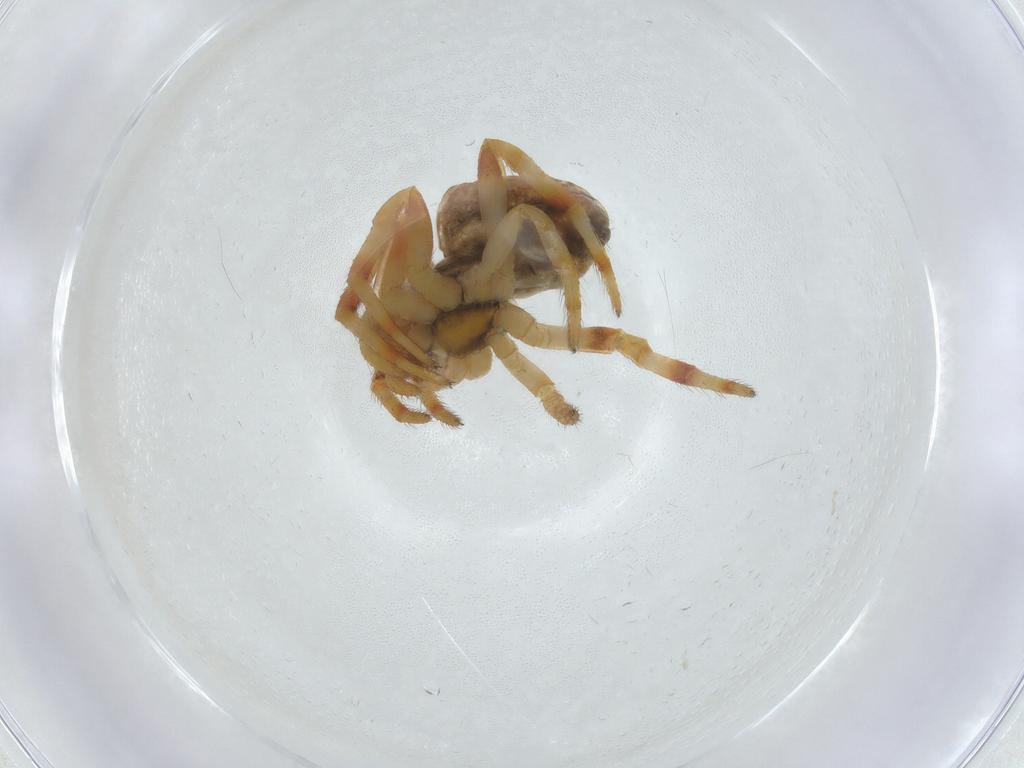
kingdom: Animalia
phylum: Arthropoda
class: Arachnida
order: Araneae
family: Araneidae
